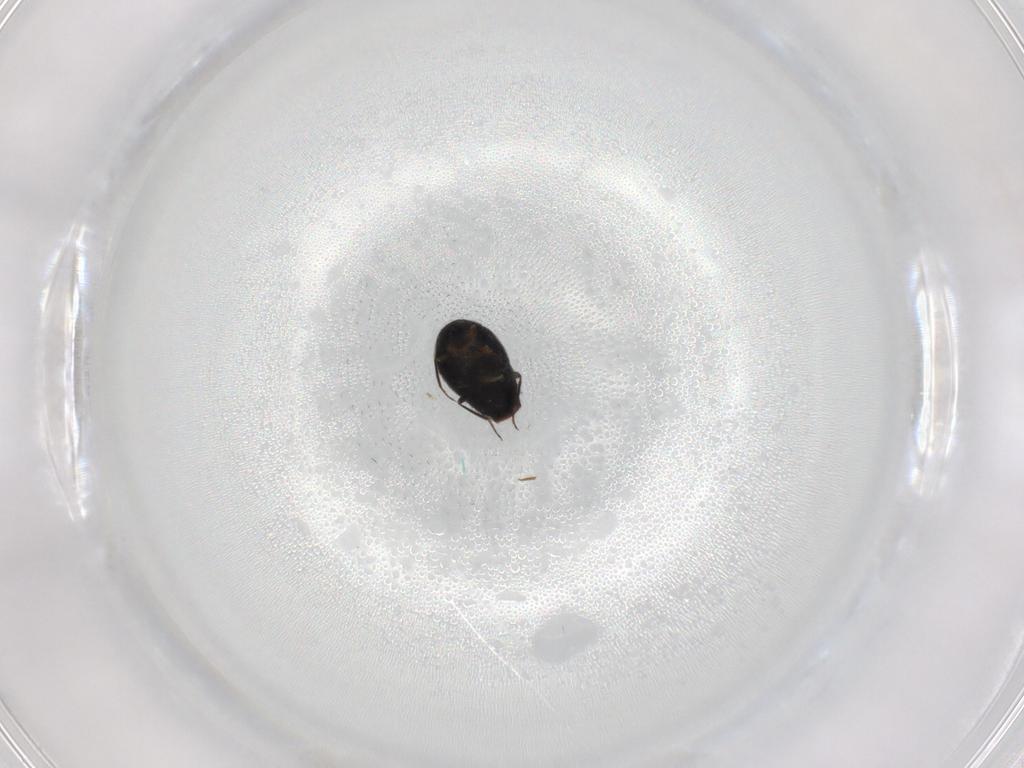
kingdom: Animalia
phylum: Arthropoda
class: Insecta
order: Coleoptera
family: Staphylinidae
